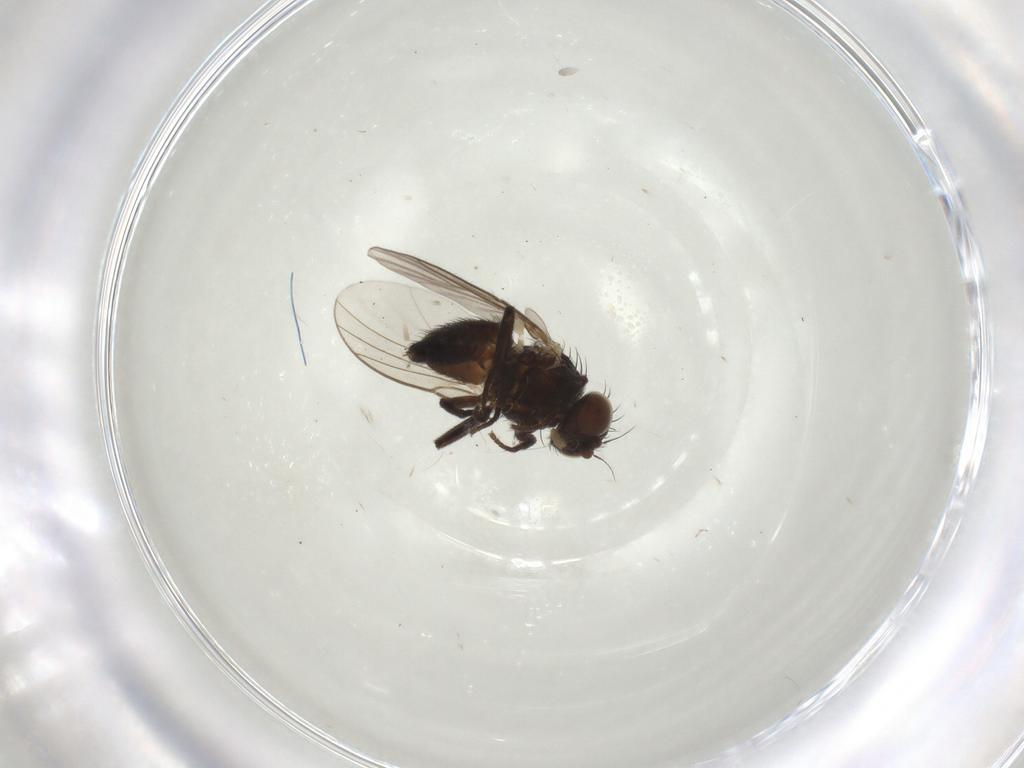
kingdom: Animalia
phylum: Arthropoda
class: Insecta
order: Diptera
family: Agromyzidae
